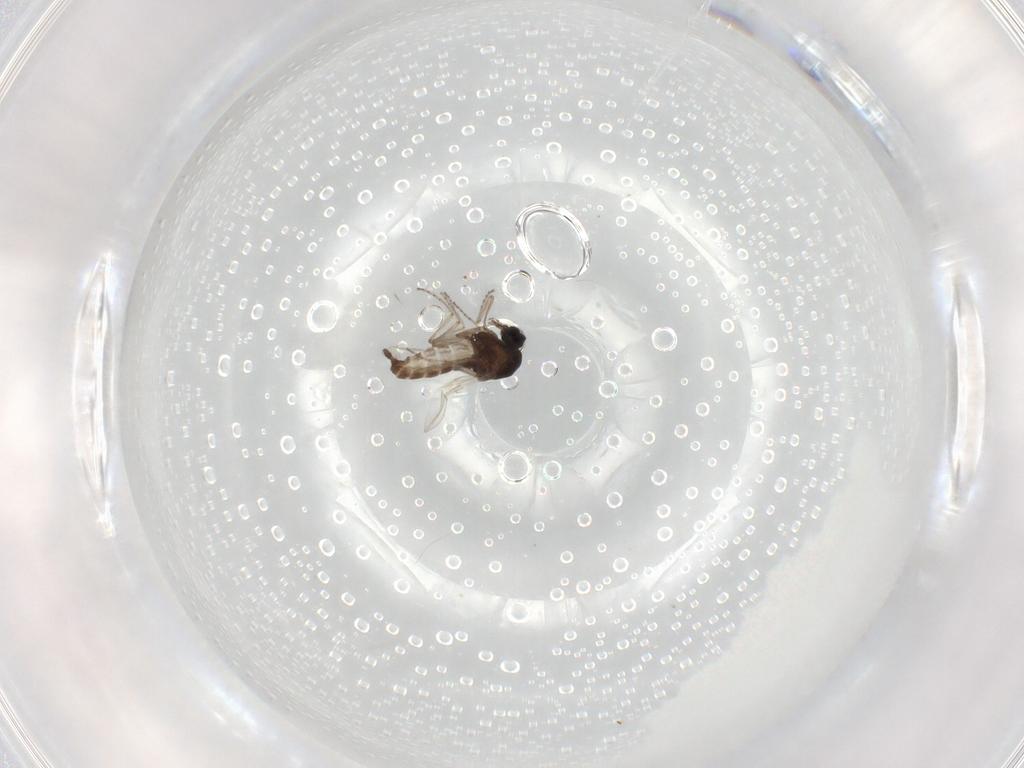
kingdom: Animalia
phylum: Arthropoda
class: Insecta
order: Diptera
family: Ceratopogonidae
